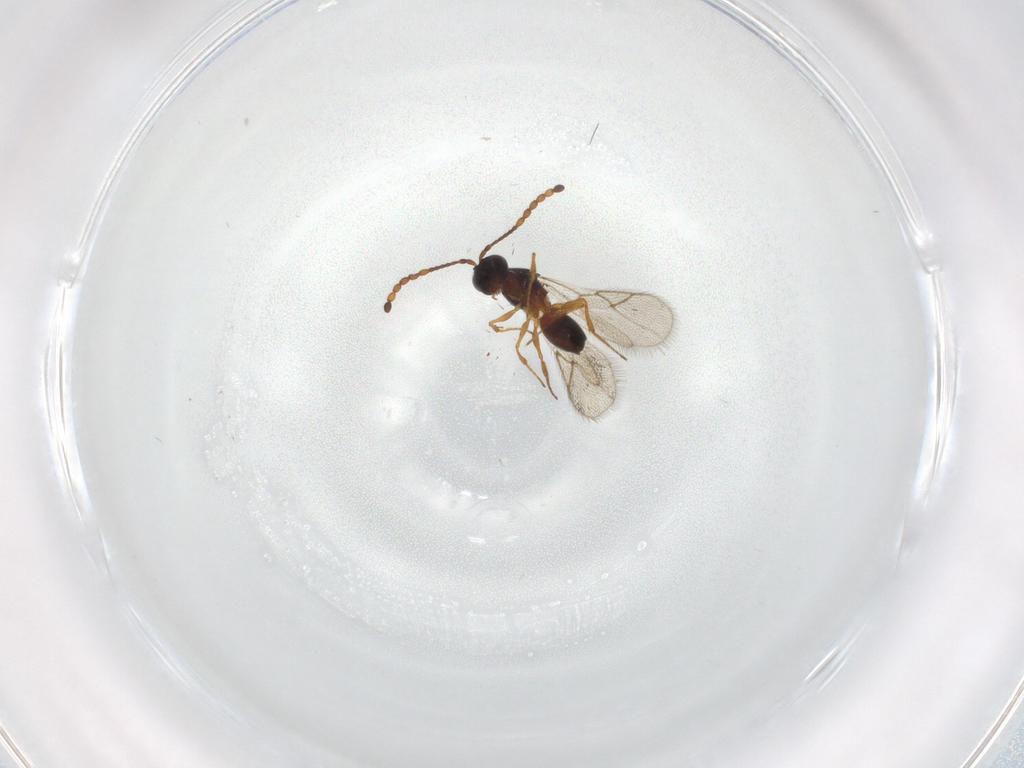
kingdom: Animalia
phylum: Arthropoda
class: Insecta
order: Hymenoptera
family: Figitidae
